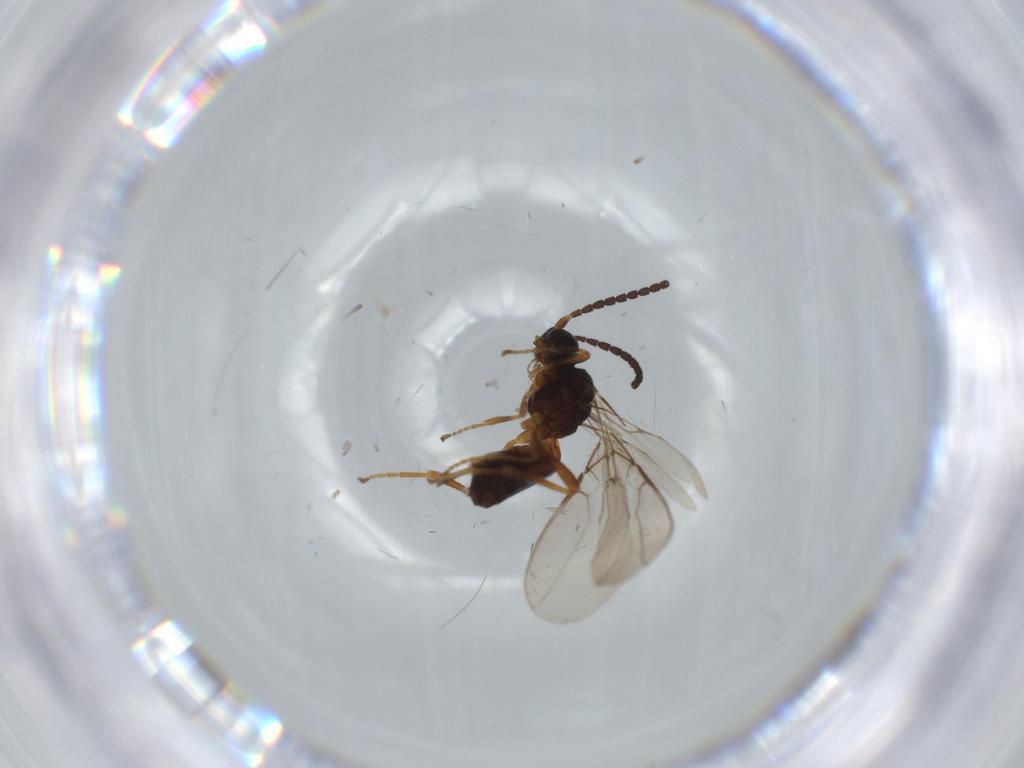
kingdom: Animalia
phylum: Arthropoda
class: Insecta
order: Hymenoptera
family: Braconidae
